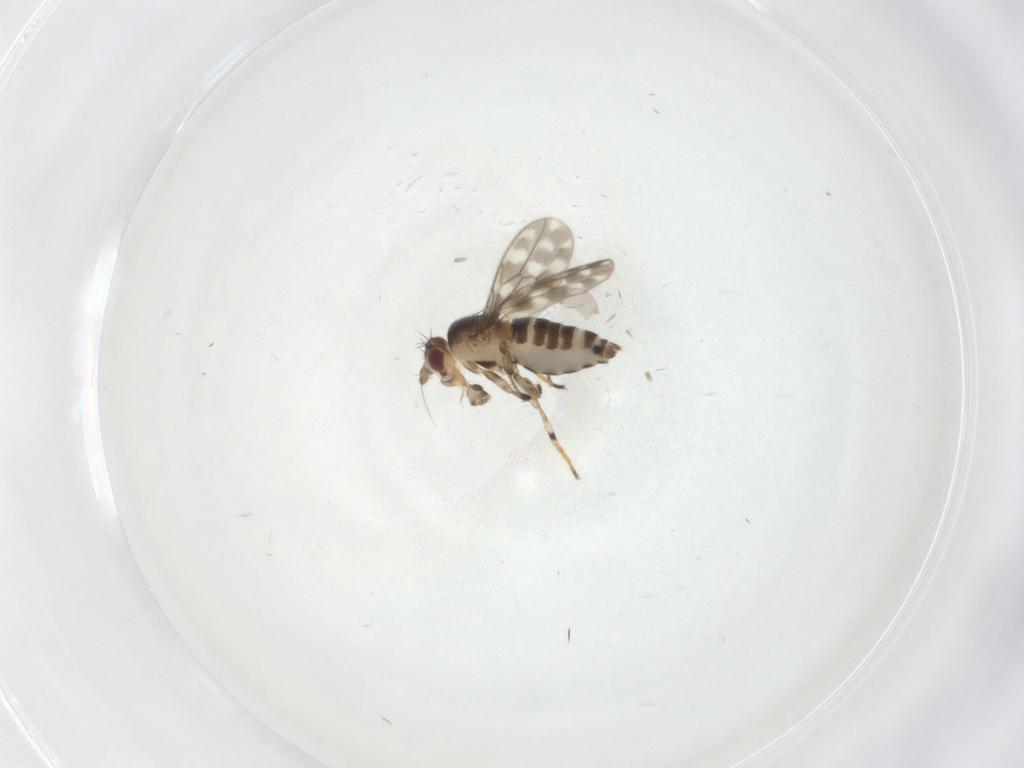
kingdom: Animalia
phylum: Arthropoda
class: Insecta
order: Diptera
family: Sphaeroceridae
